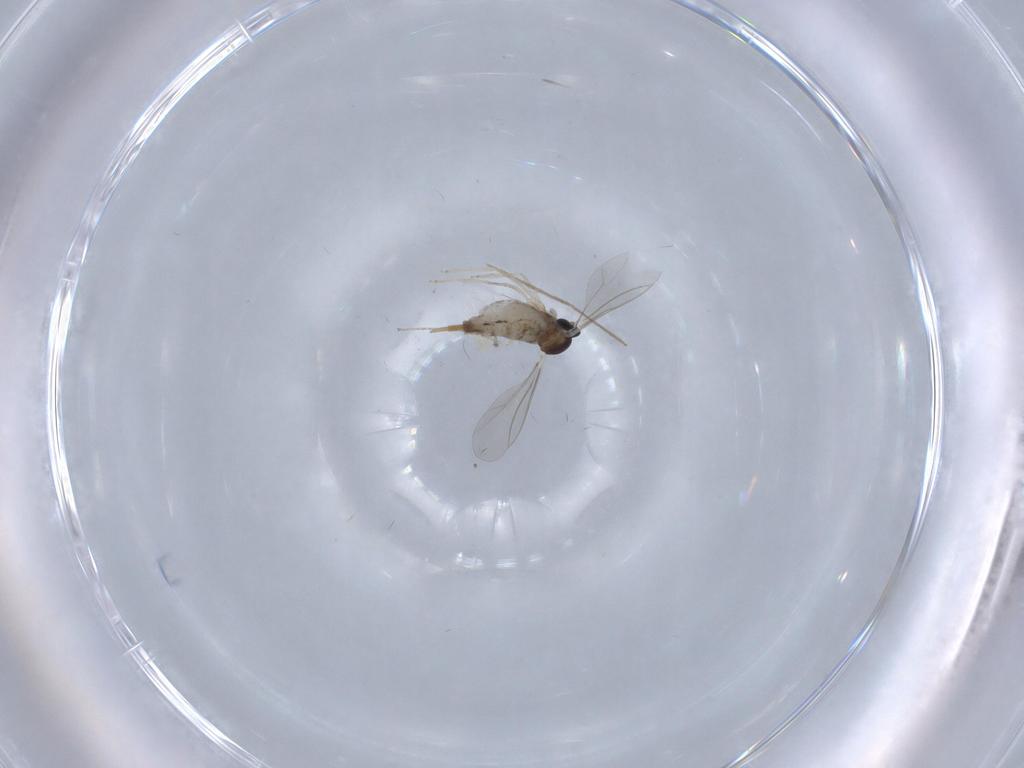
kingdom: Animalia
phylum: Arthropoda
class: Insecta
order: Diptera
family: Cecidomyiidae
